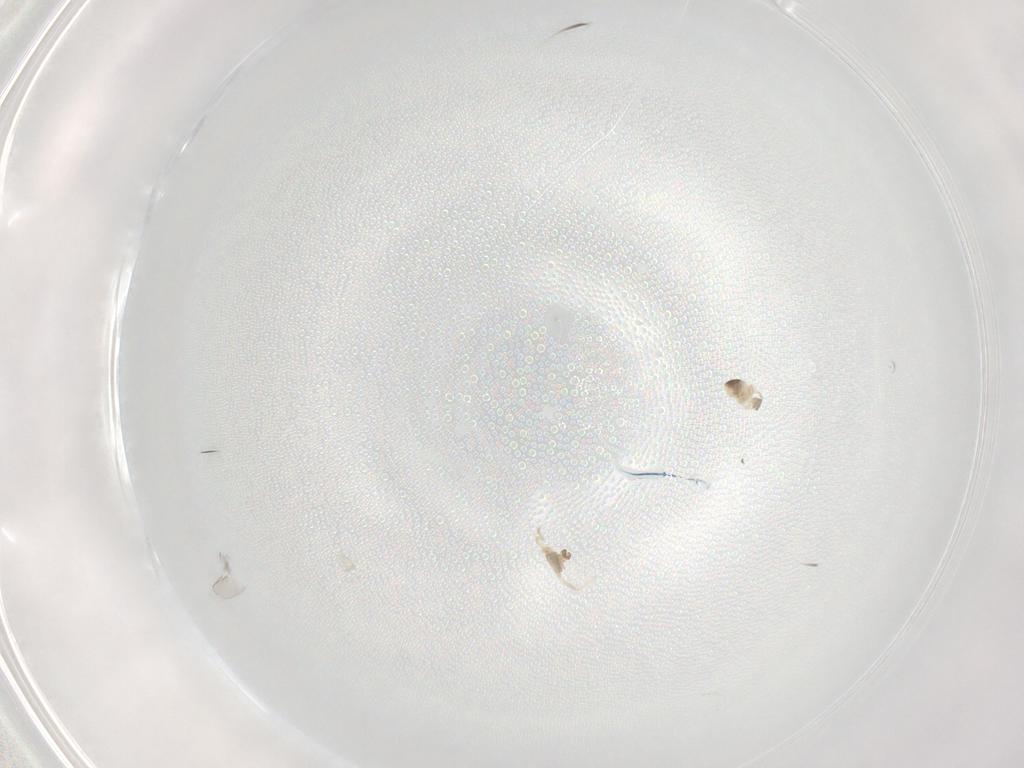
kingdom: Animalia
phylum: Arthropoda
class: Insecta
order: Diptera
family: Cecidomyiidae
